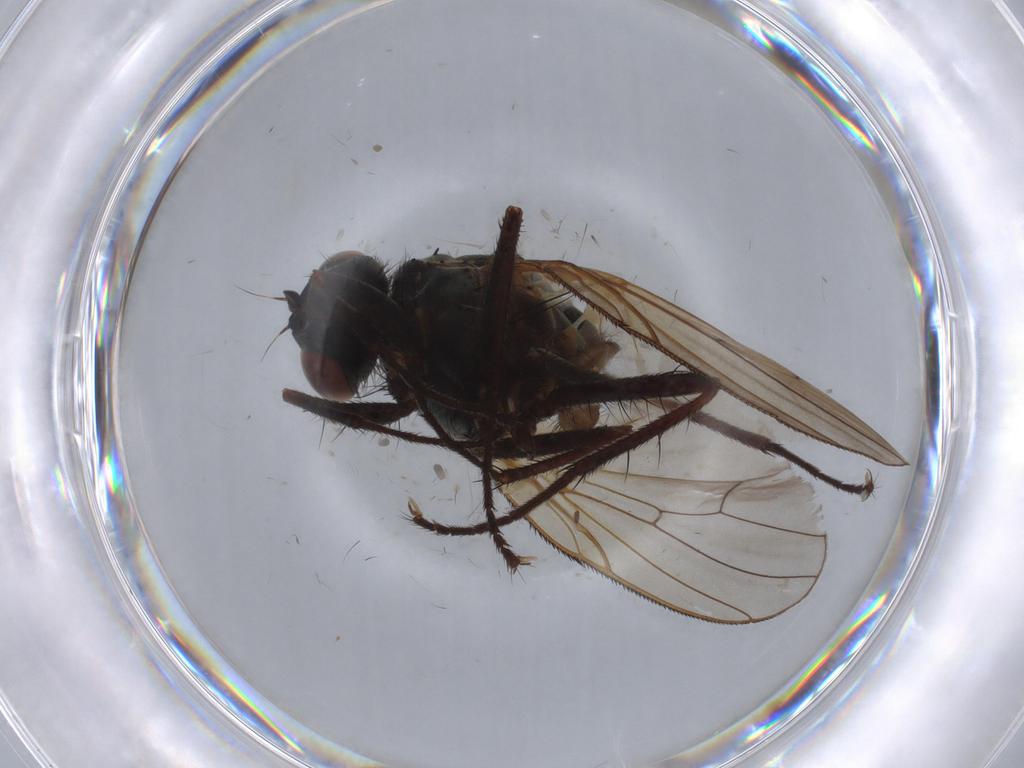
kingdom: Animalia
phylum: Arthropoda
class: Insecta
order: Diptera
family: Anthomyiidae
